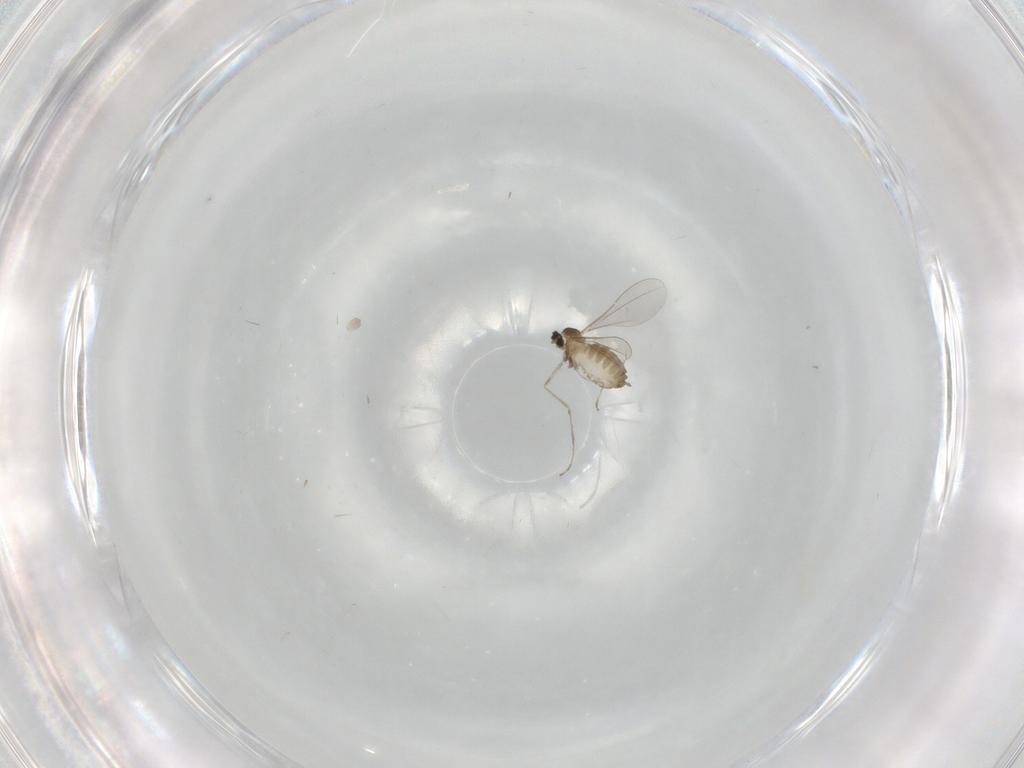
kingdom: Animalia
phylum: Arthropoda
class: Insecta
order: Diptera
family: Cecidomyiidae
